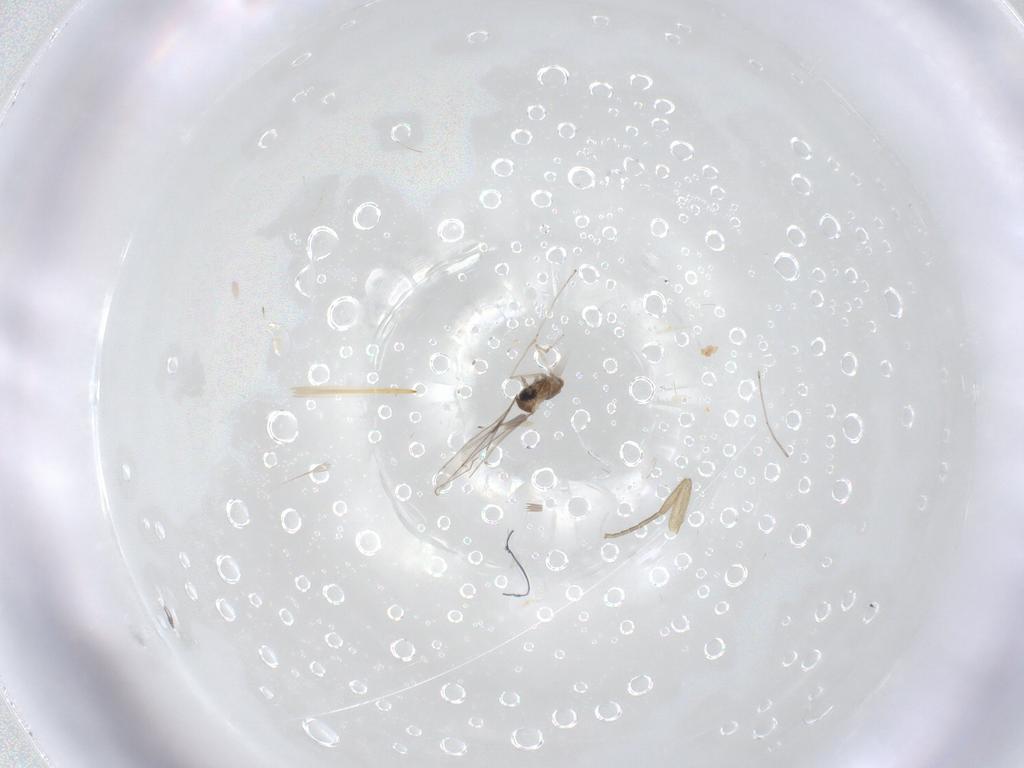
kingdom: Animalia
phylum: Arthropoda
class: Insecta
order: Diptera
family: Cecidomyiidae
